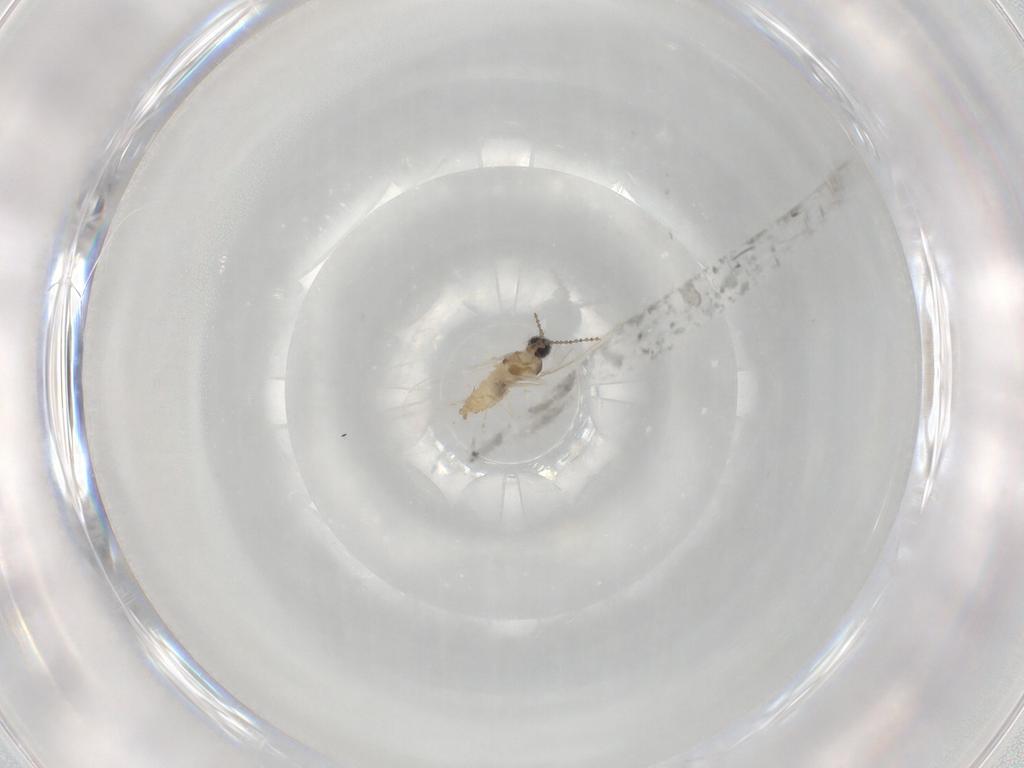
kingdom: Animalia
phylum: Arthropoda
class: Insecta
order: Diptera
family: Cecidomyiidae
